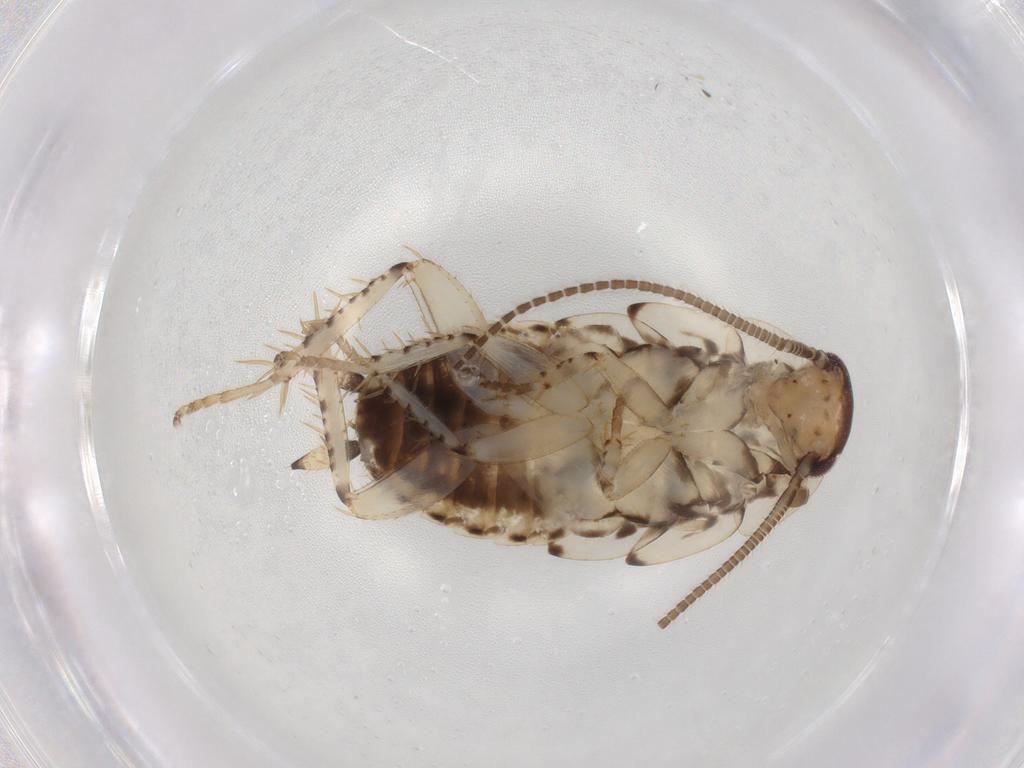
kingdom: Animalia
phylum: Arthropoda
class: Insecta
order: Blattodea
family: Ectobiidae
